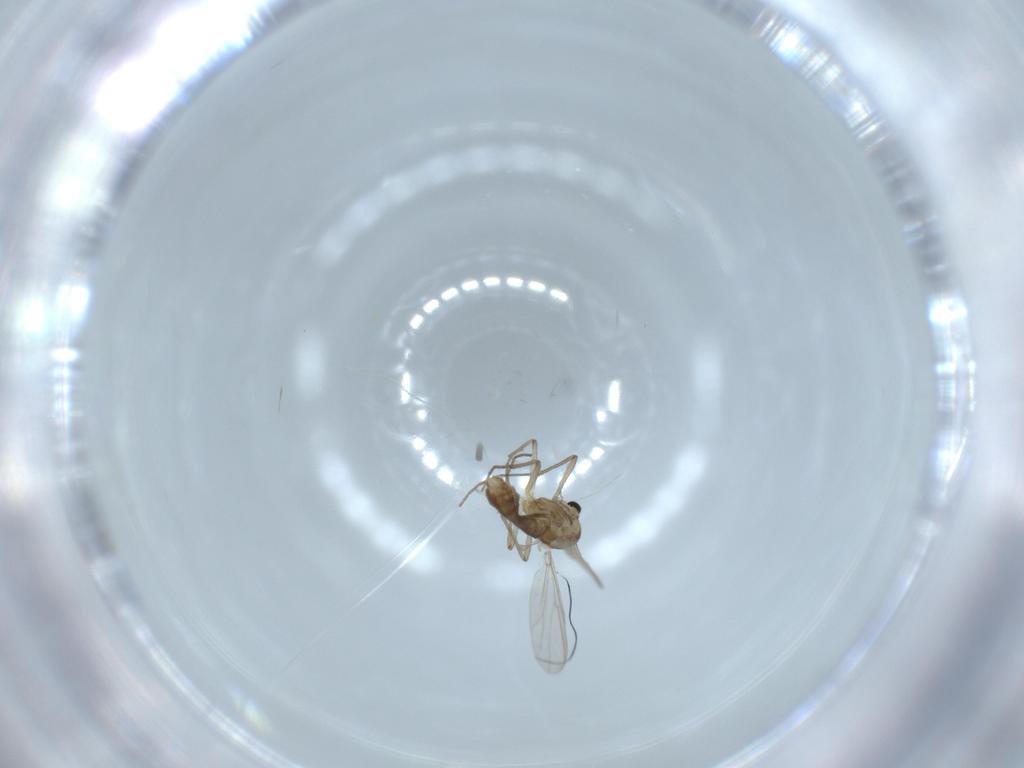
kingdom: Animalia
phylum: Arthropoda
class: Insecta
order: Diptera
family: Chironomidae
